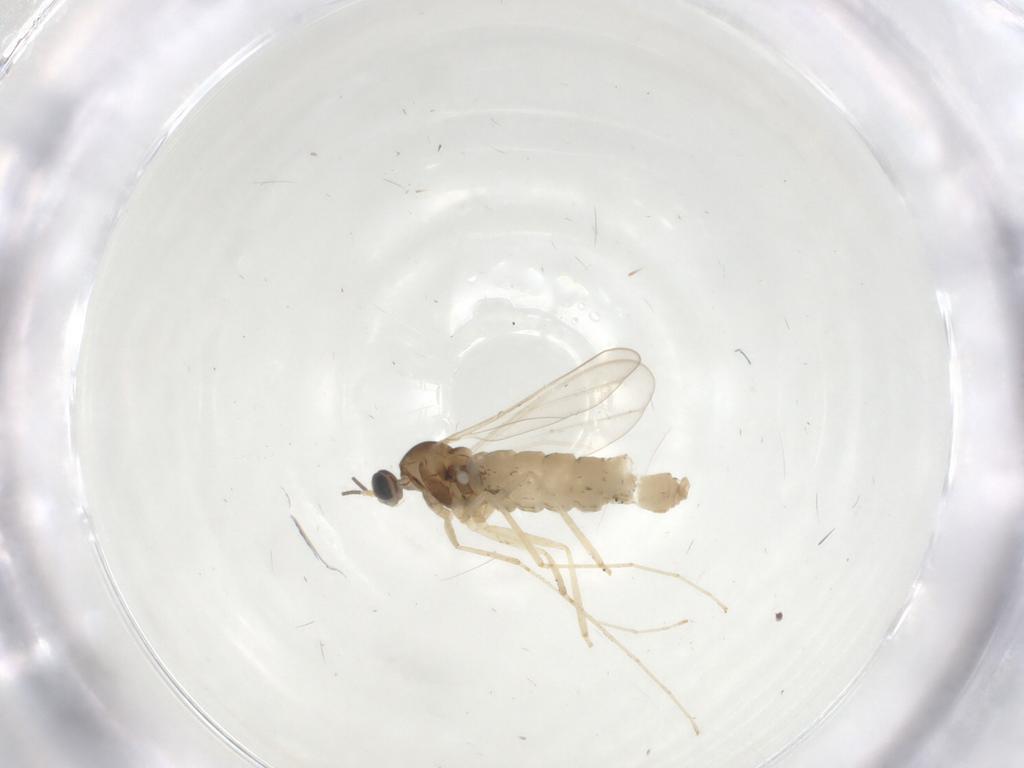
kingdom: Animalia
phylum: Arthropoda
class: Insecta
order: Diptera
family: Cecidomyiidae
